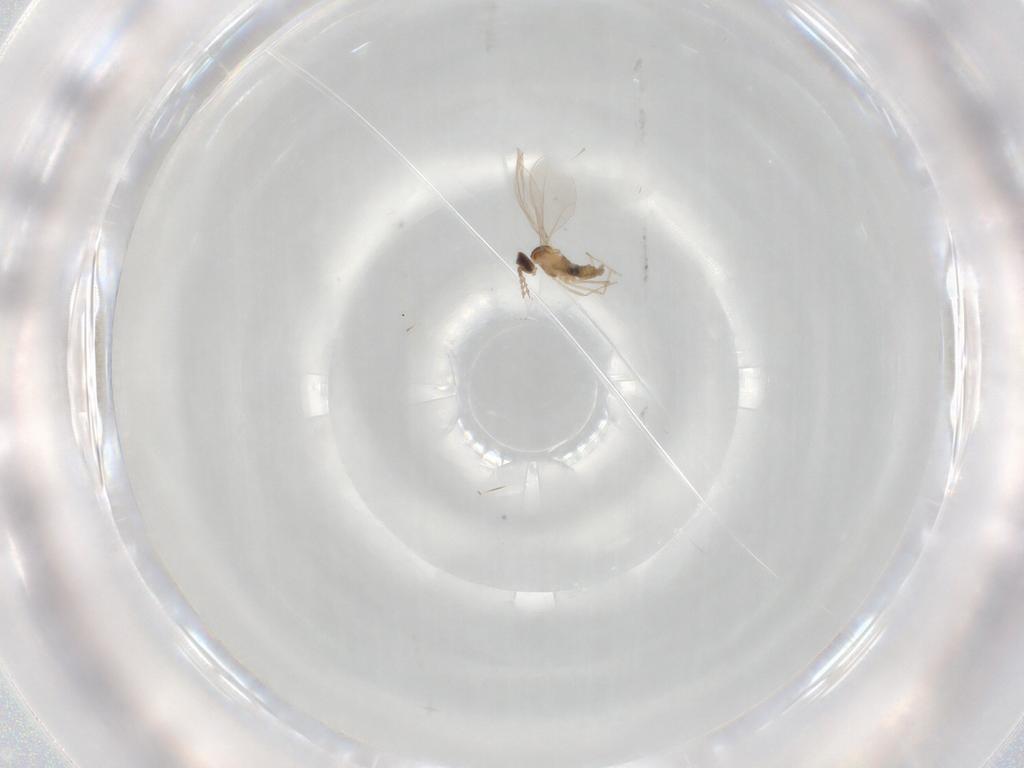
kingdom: Animalia
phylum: Arthropoda
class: Insecta
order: Diptera
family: Cecidomyiidae
